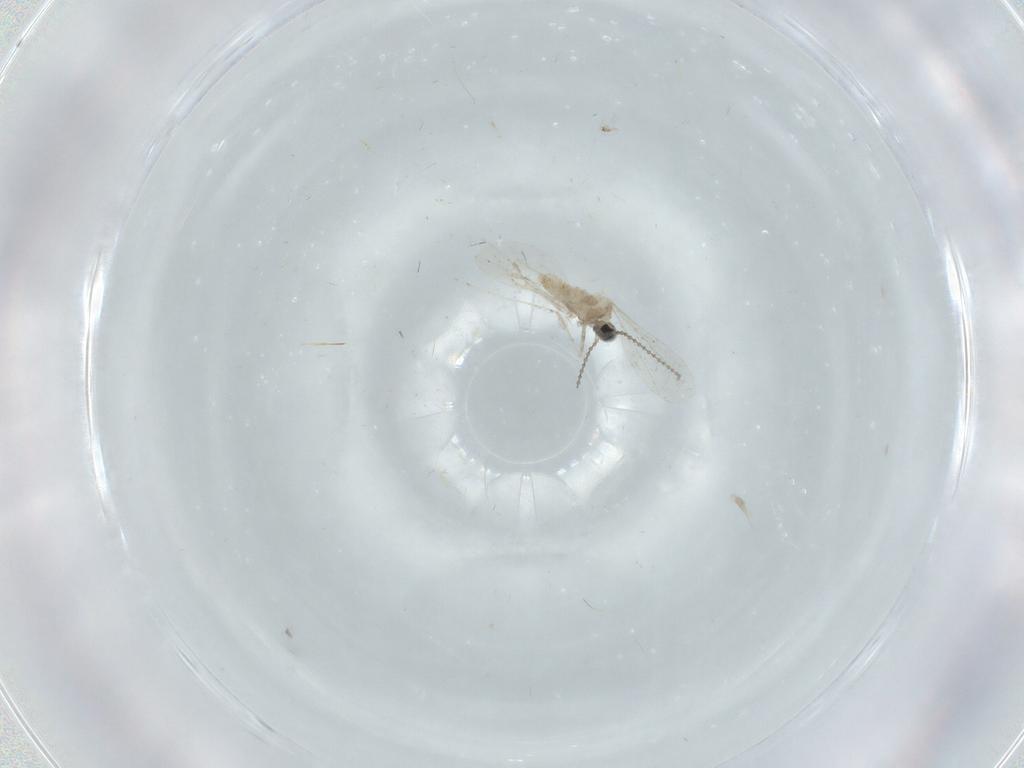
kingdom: Animalia
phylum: Arthropoda
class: Insecta
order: Diptera
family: Cecidomyiidae
